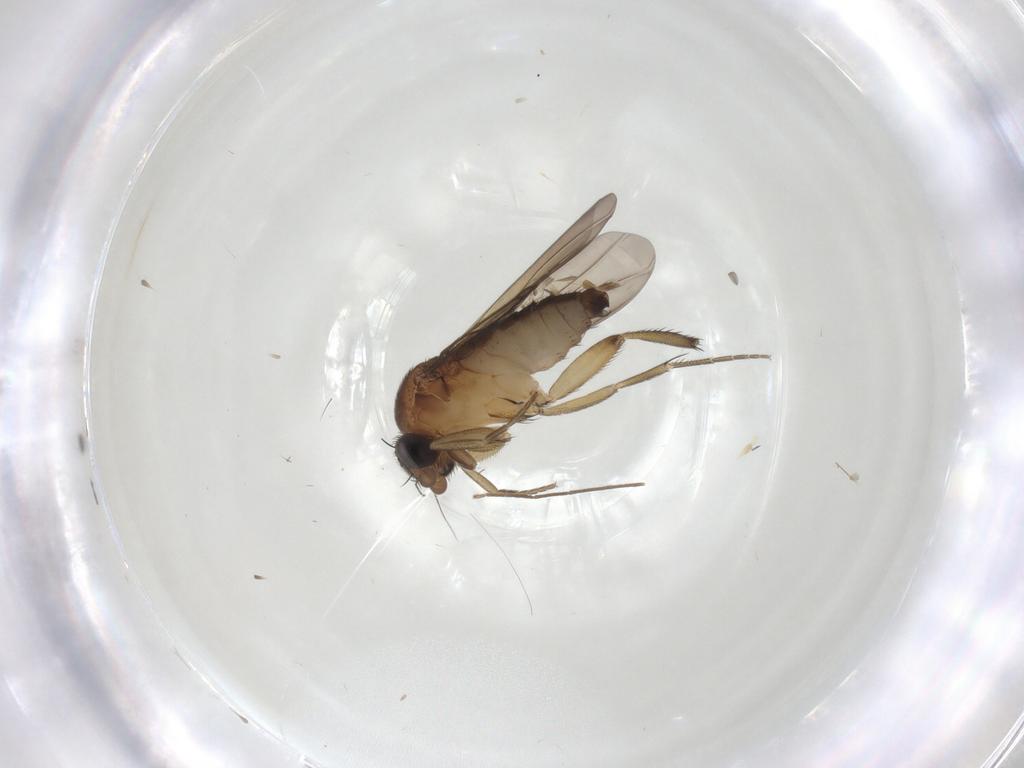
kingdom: Animalia
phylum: Arthropoda
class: Insecta
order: Diptera
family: Phoridae
